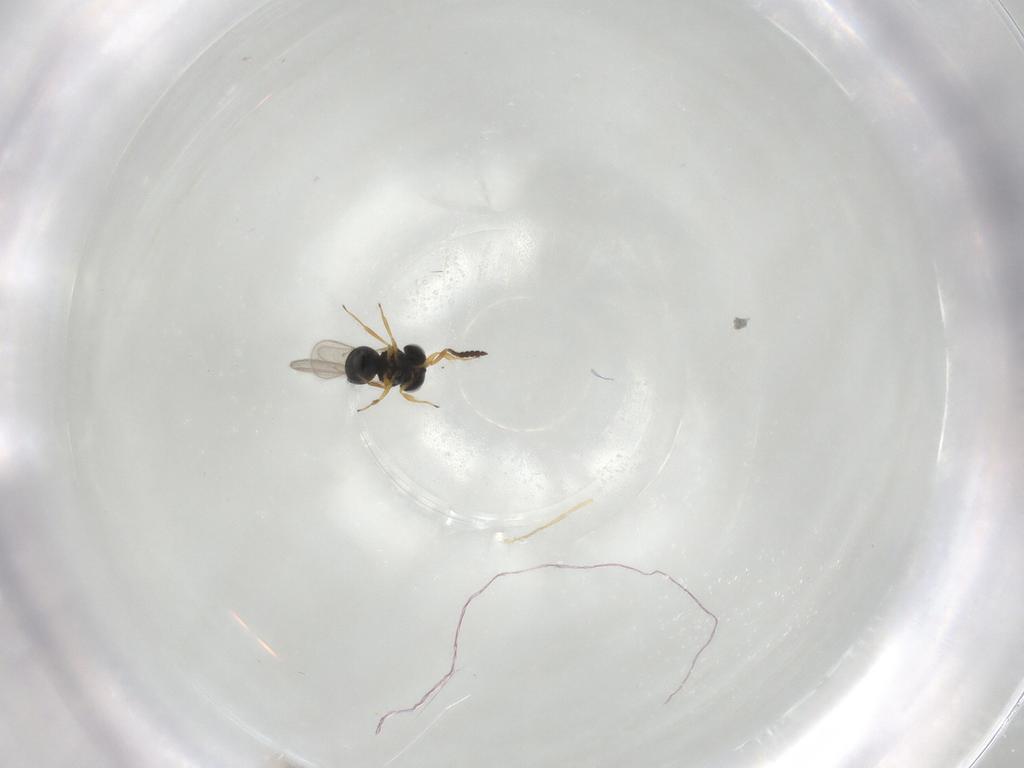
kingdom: Animalia
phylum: Arthropoda
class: Insecta
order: Hymenoptera
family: Scelionidae
